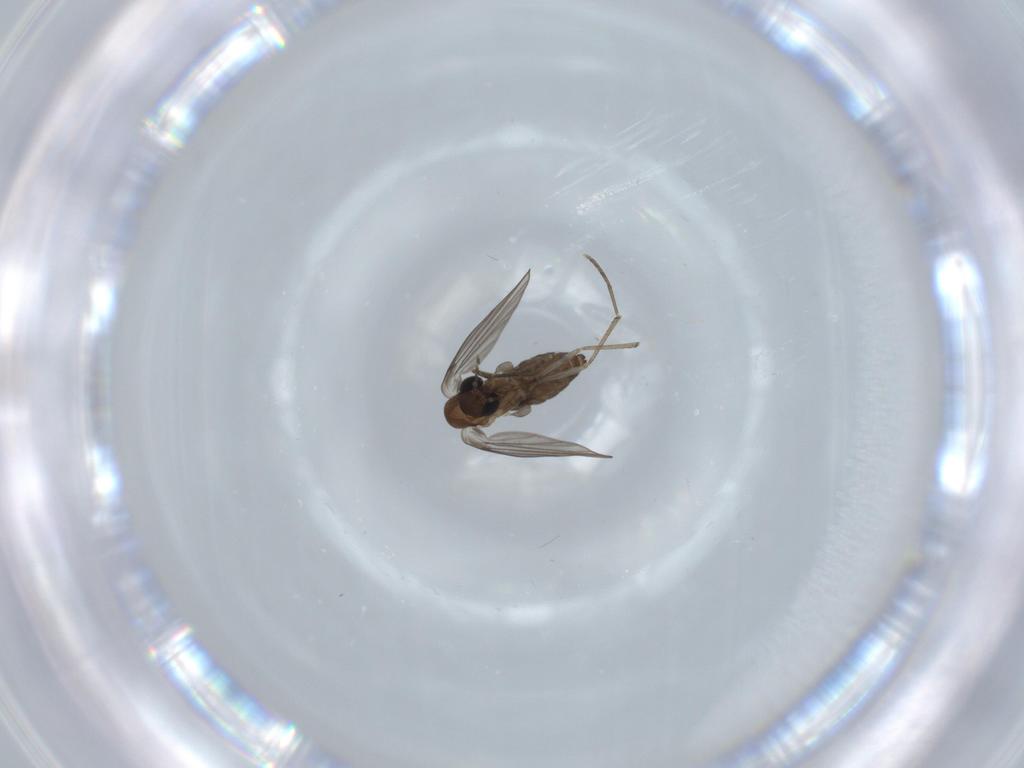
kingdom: Animalia
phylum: Arthropoda
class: Insecta
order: Diptera
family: Psychodidae
